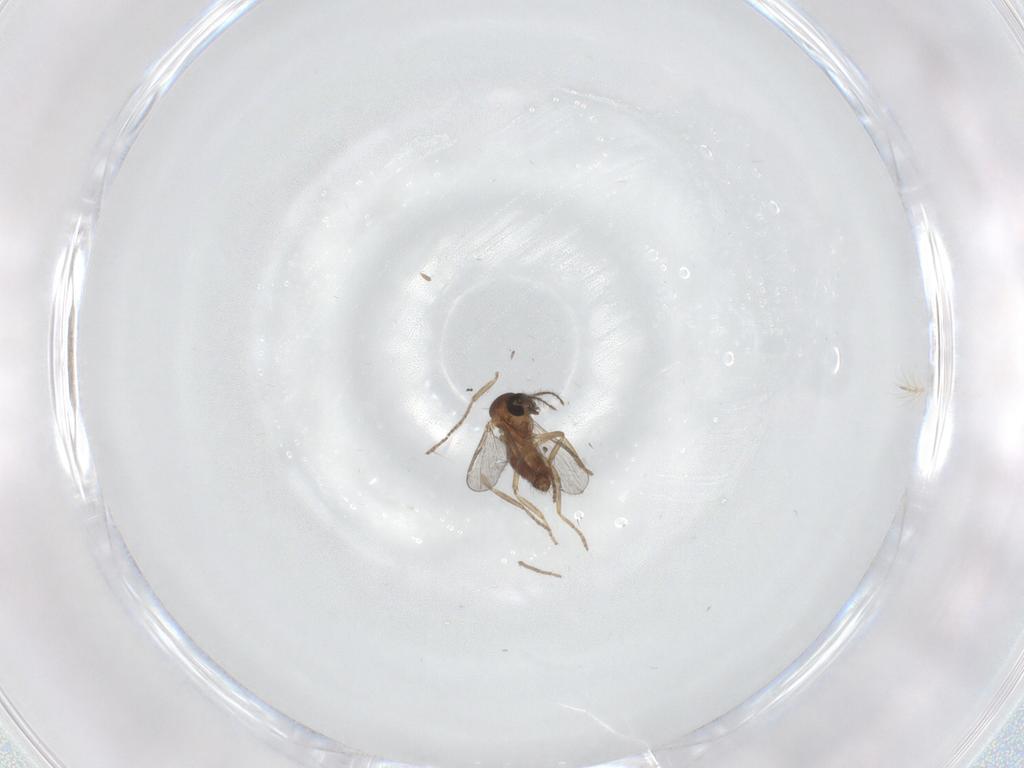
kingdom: Animalia
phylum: Arthropoda
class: Insecta
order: Diptera
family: Chironomidae
